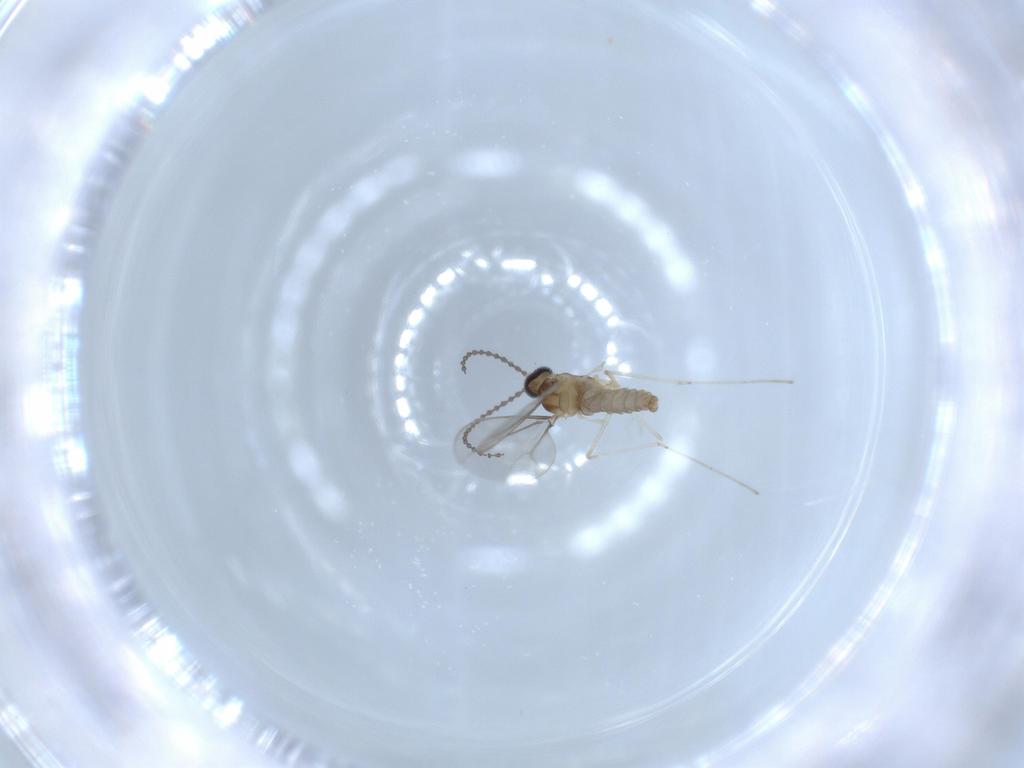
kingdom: Animalia
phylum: Arthropoda
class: Insecta
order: Diptera
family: Cecidomyiidae
